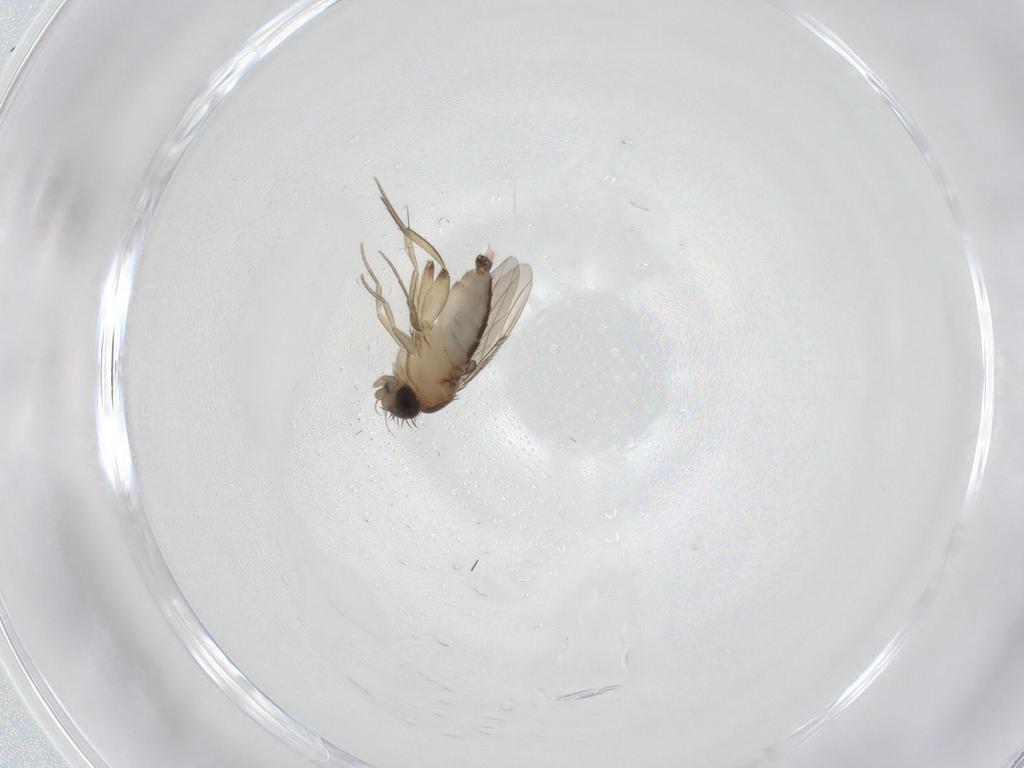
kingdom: Animalia
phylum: Arthropoda
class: Insecta
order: Diptera
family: Phoridae
